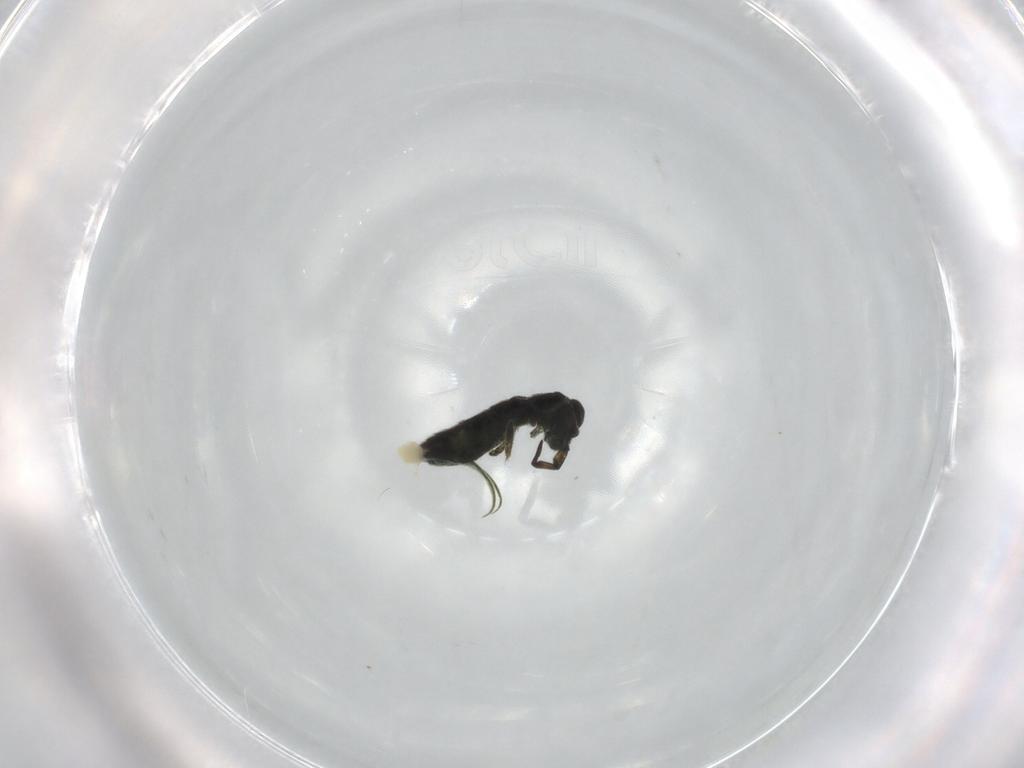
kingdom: Animalia
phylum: Arthropoda
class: Collembola
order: Entomobryomorpha
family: Isotomidae
